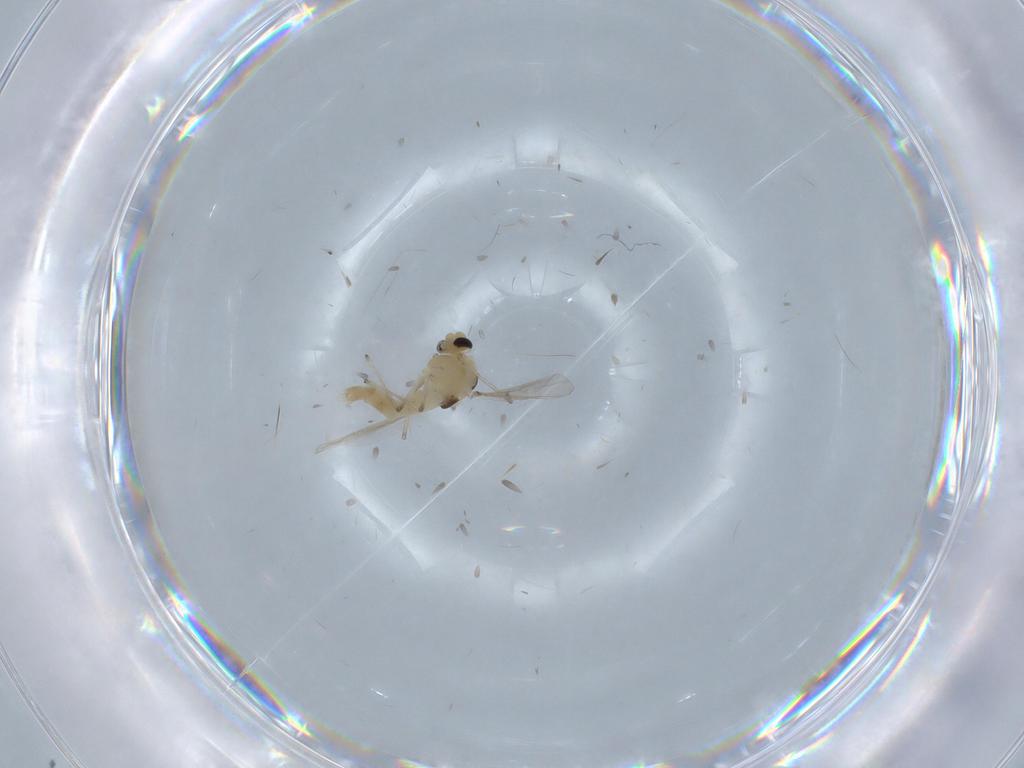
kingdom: Animalia
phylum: Arthropoda
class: Insecta
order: Diptera
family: Chironomidae
